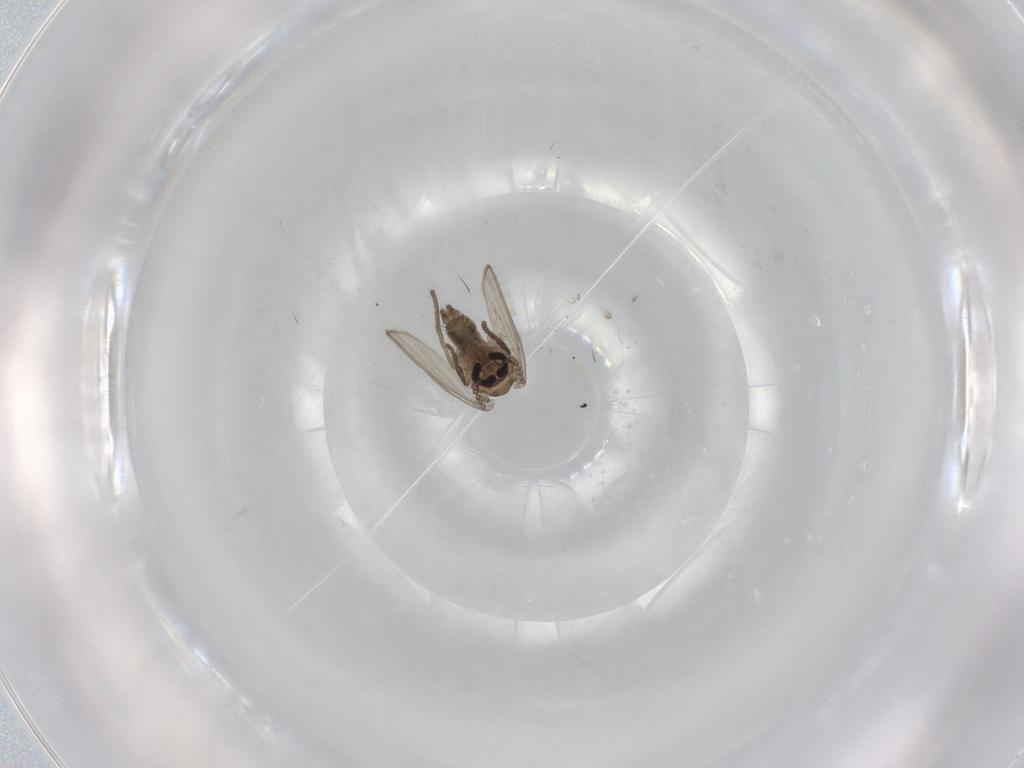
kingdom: Animalia
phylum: Arthropoda
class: Insecta
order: Diptera
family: Psychodidae
